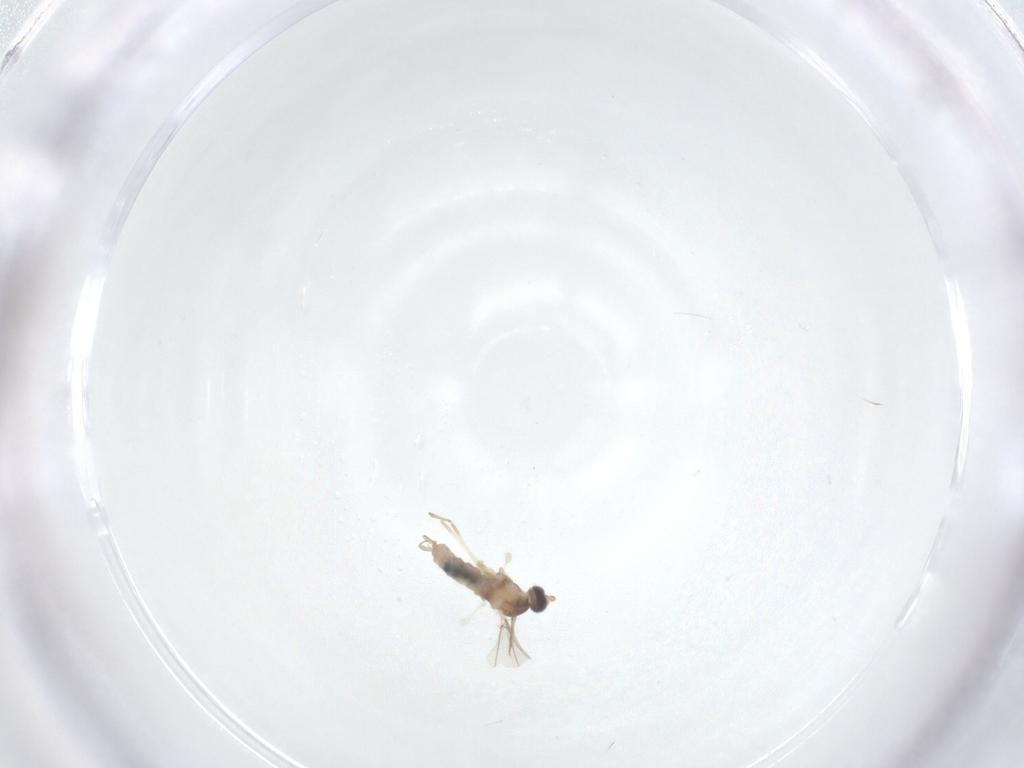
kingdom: Animalia
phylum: Arthropoda
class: Insecta
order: Diptera
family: Cecidomyiidae
